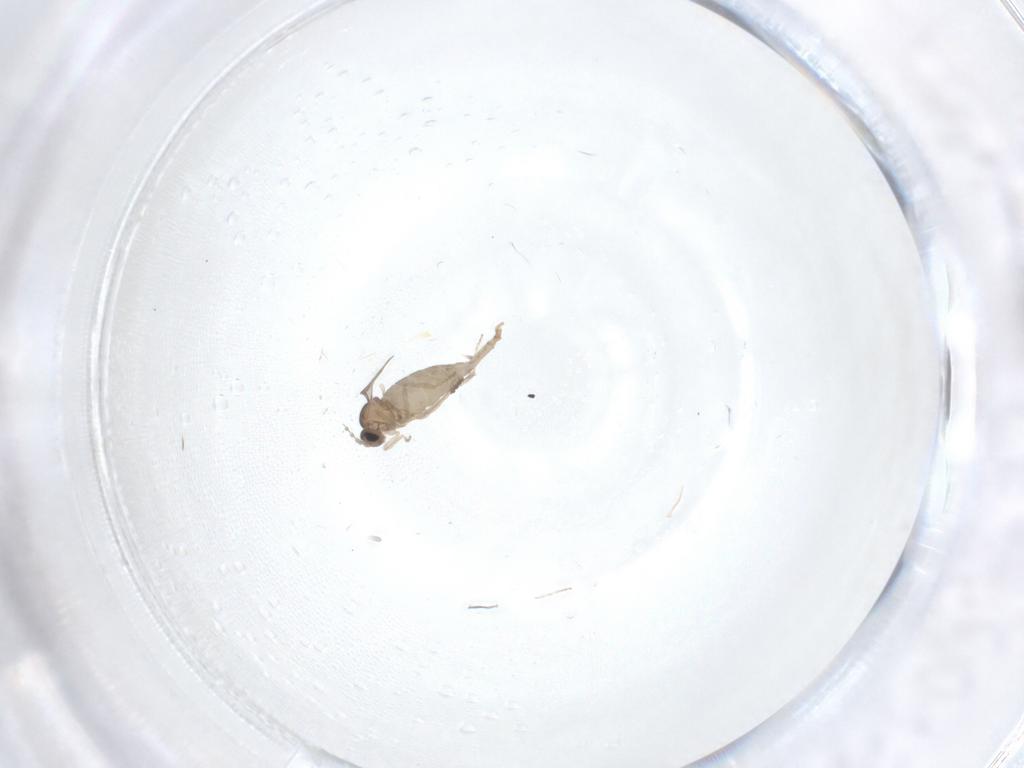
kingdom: Animalia
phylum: Arthropoda
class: Insecta
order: Diptera
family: Cecidomyiidae
